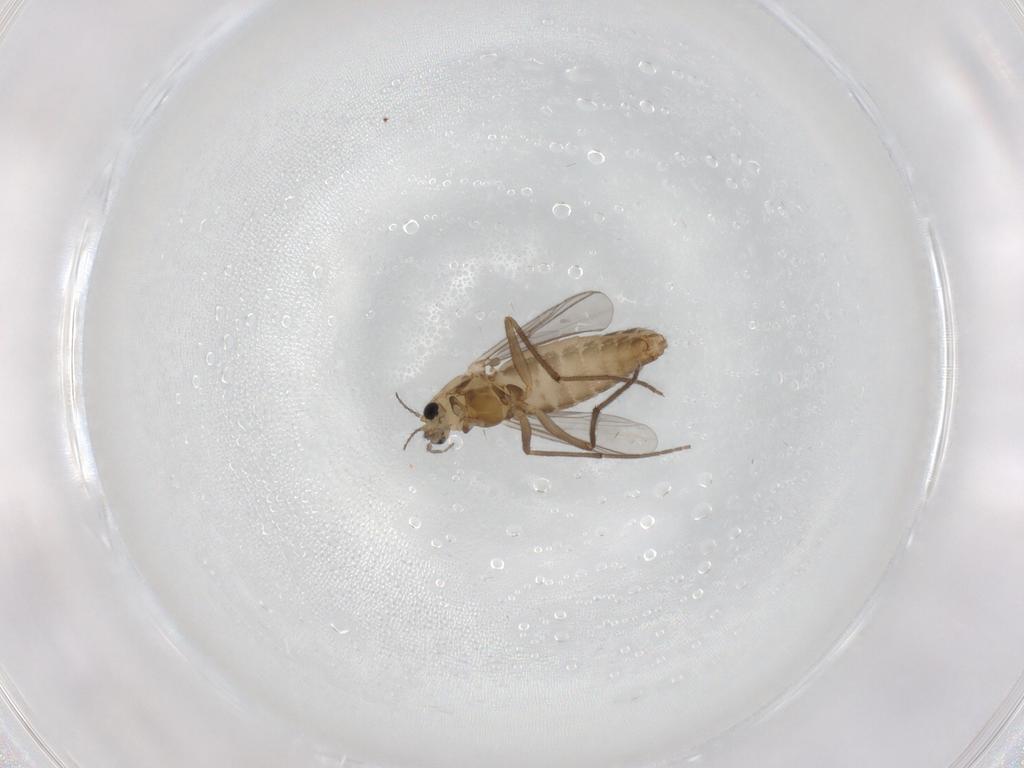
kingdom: Animalia
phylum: Arthropoda
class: Insecta
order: Diptera
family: Chironomidae
